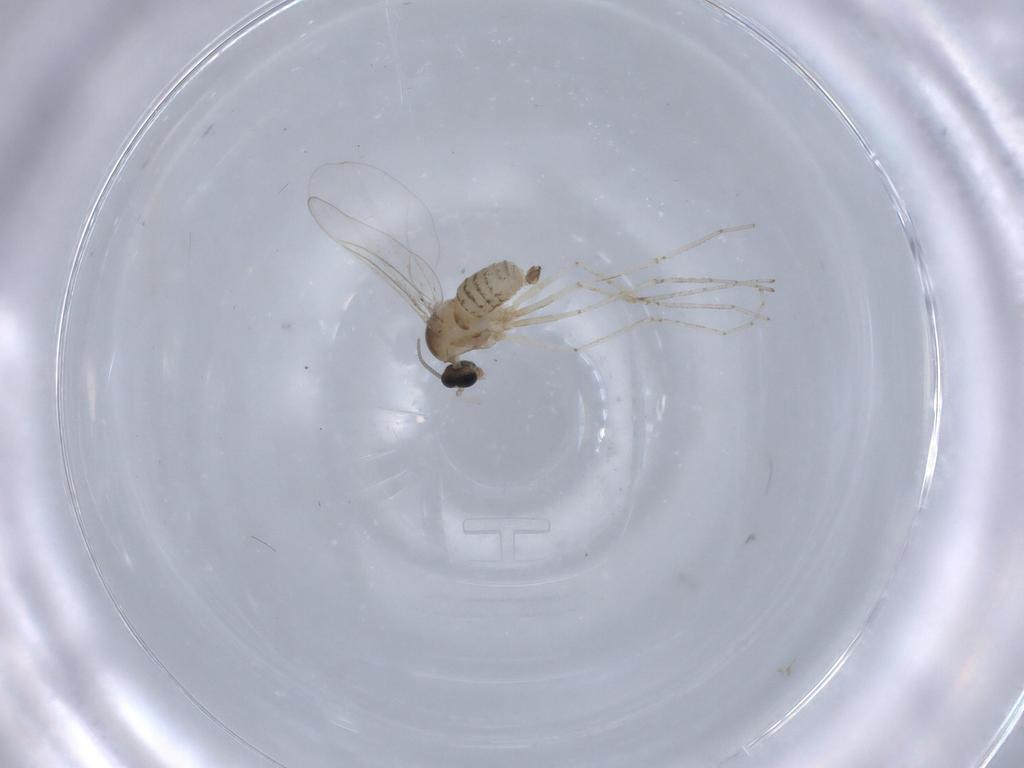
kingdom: Animalia
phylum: Arthropoda
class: Insecta
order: Diptera
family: Cecidomyiidae
